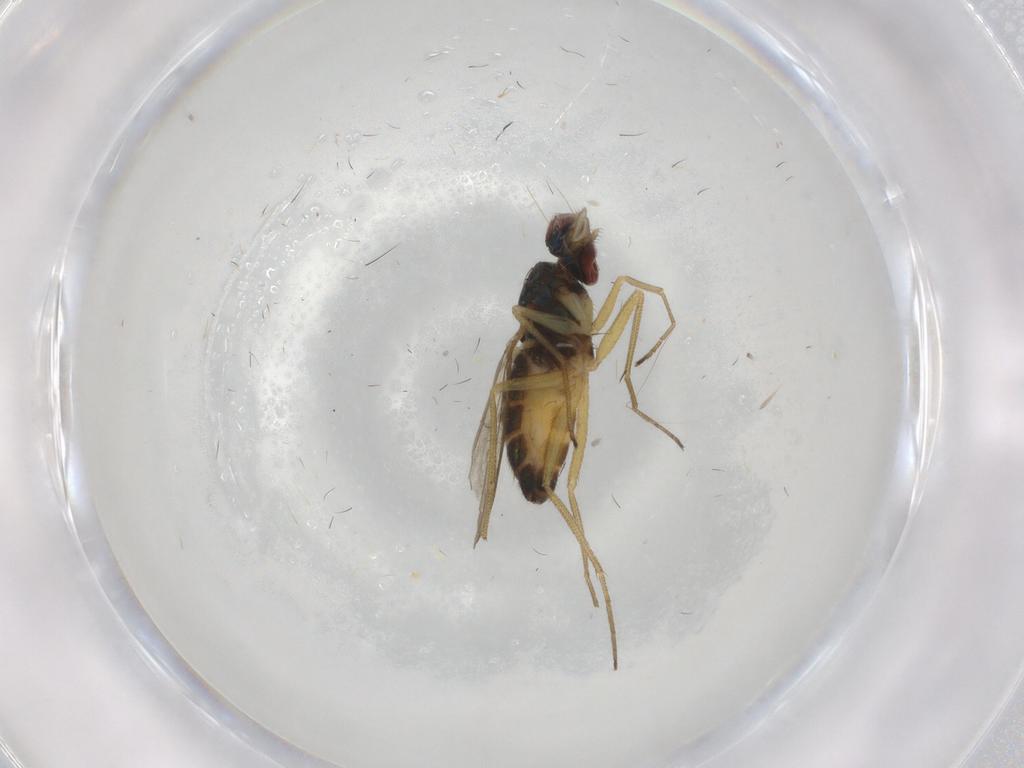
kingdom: Animalia
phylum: Arthropoda
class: Insecta
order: Diptera
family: Dolichopodidae
